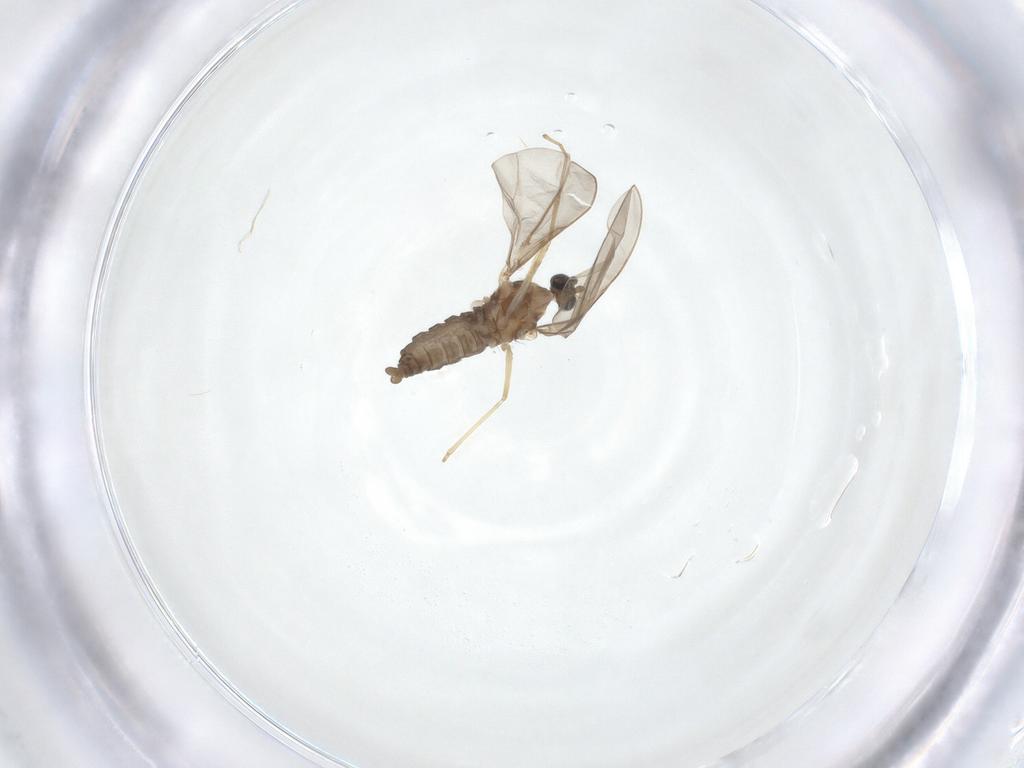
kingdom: Animalia
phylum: Arthropoda
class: Insecta
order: Diptera
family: Cecidomyiidae
